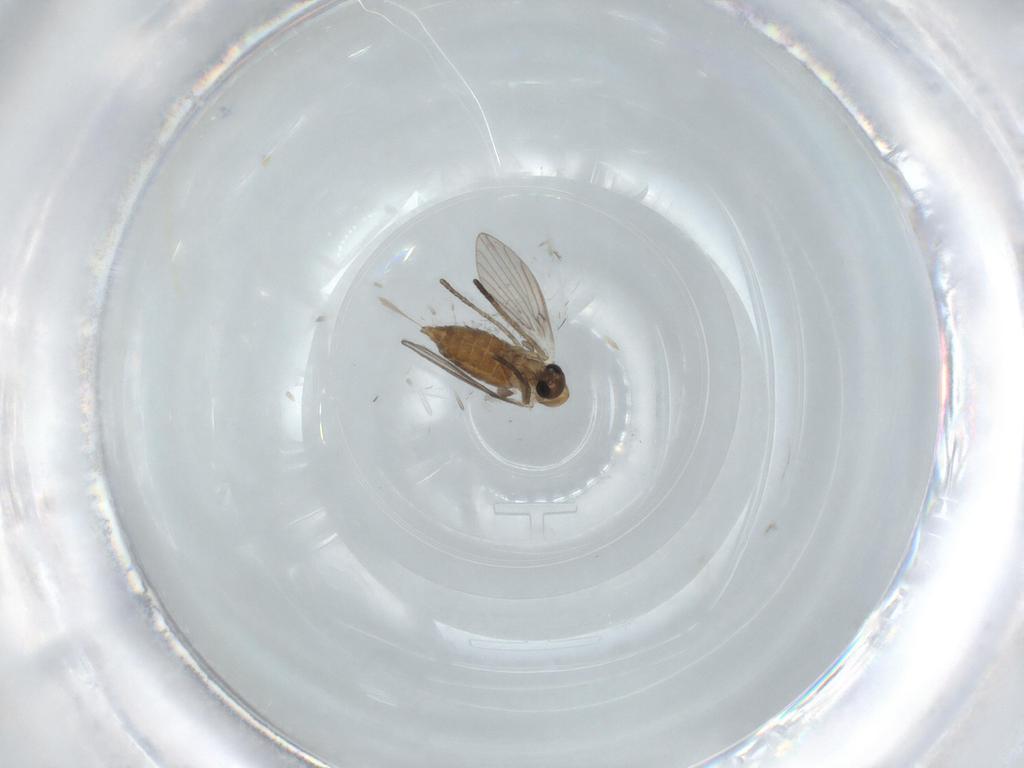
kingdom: Animalia
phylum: Arthropoda
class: Insecta
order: Diptera
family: Psychodidae
